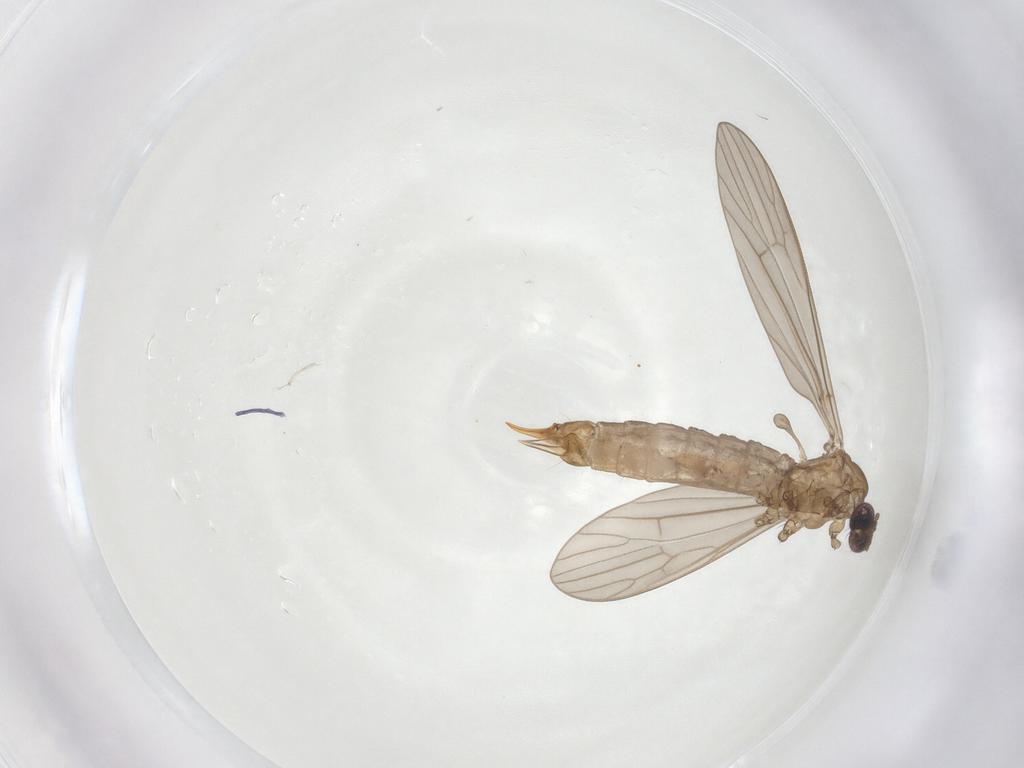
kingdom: Animalia
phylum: Arthropoda
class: Insecta
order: Diptera
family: Limoniidae
